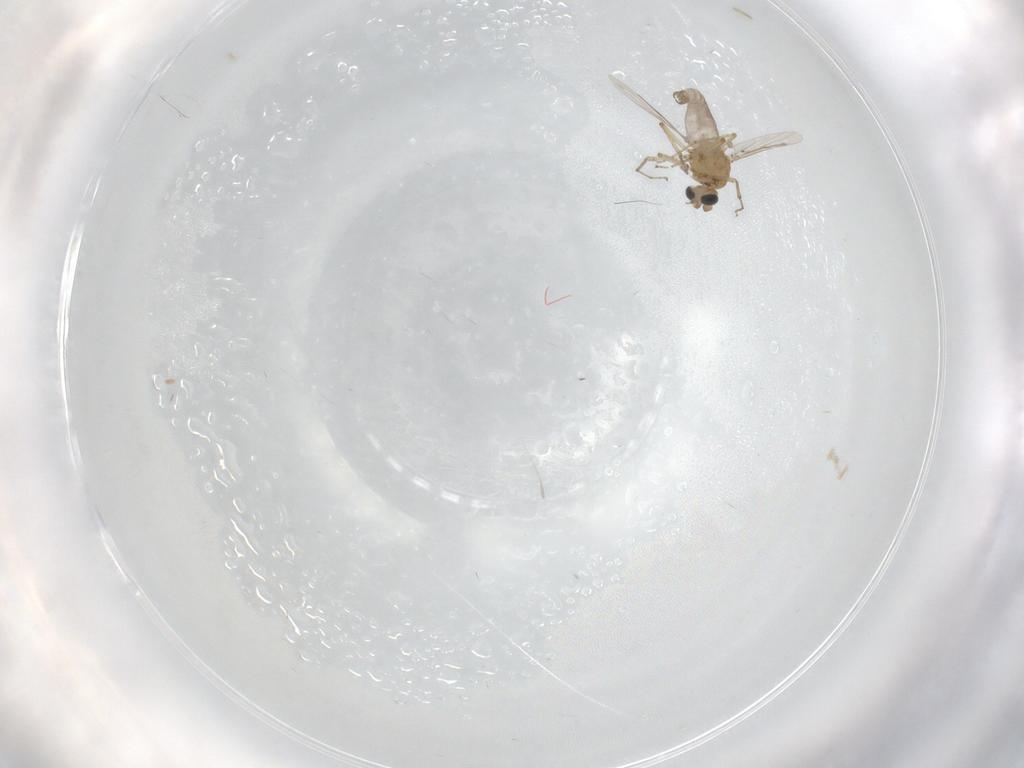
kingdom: Animalia
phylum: Arthropoda
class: Insecta
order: Diptera
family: Ceratopogonidae
